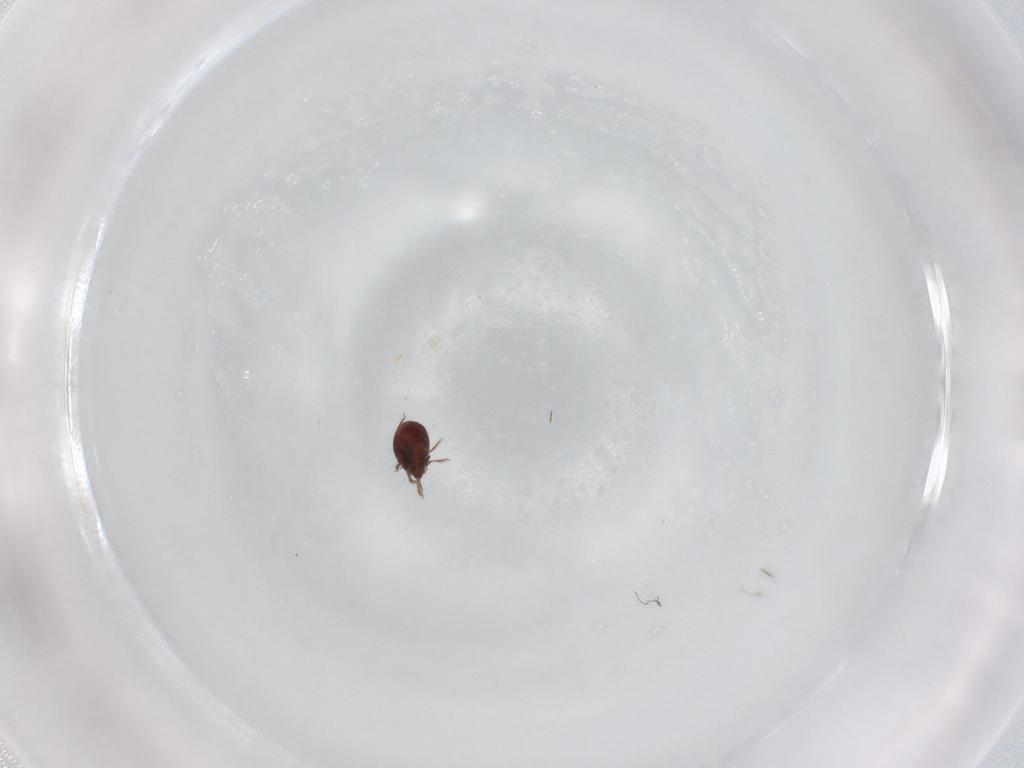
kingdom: Animalia
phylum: Arthropoda
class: Arachnida
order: Sarcoptiformes
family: Ceratozetidae
